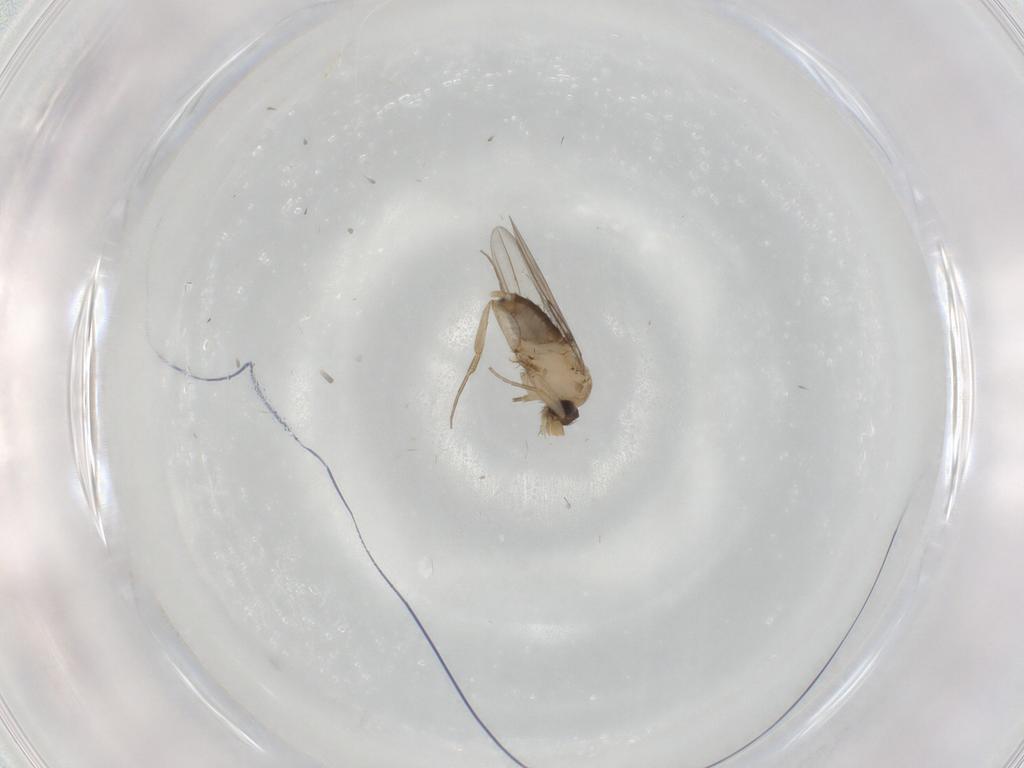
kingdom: Animalia
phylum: Arthropoda
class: Insecta
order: Diptera
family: Phoridae
